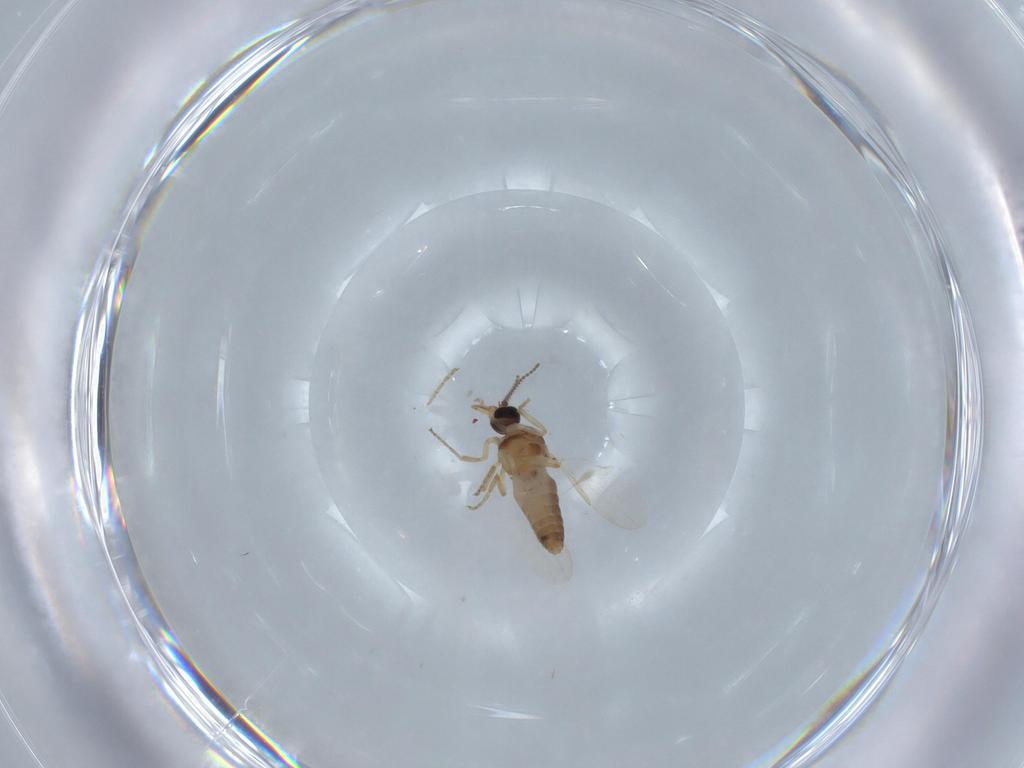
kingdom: Animalia
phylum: Arthropoda
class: Insecta
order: Diptera
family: Ceratopogonidae
